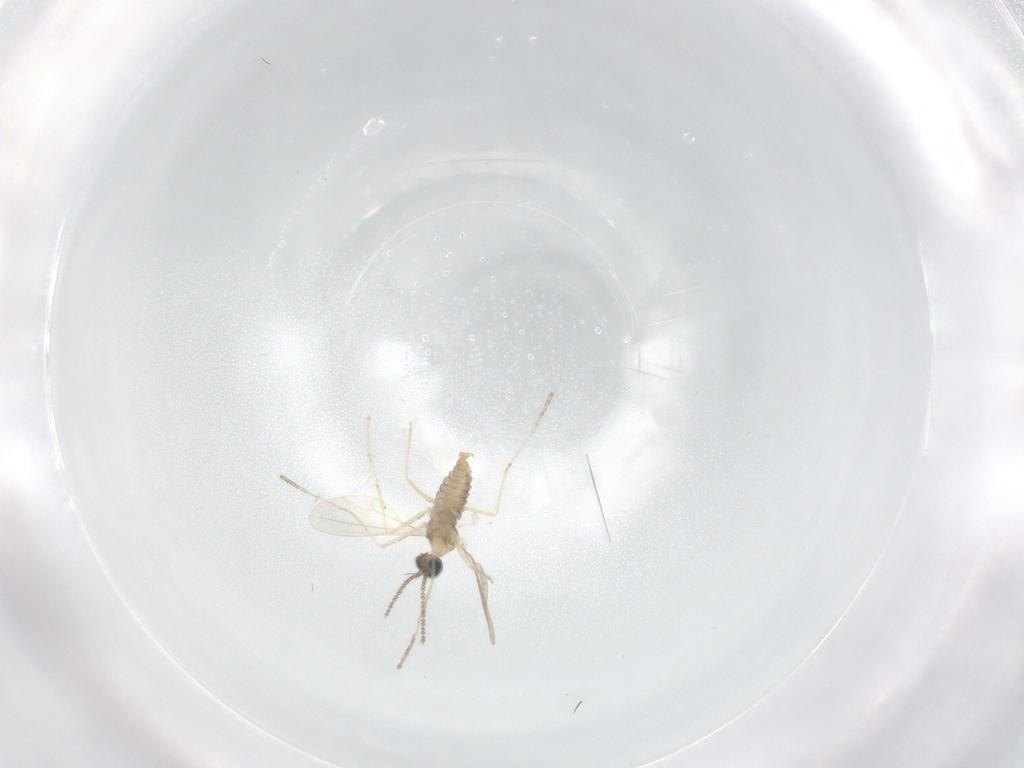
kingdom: Animalia
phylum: Arthropoda
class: Insecta
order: Diptera
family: Cecidomyiidae
